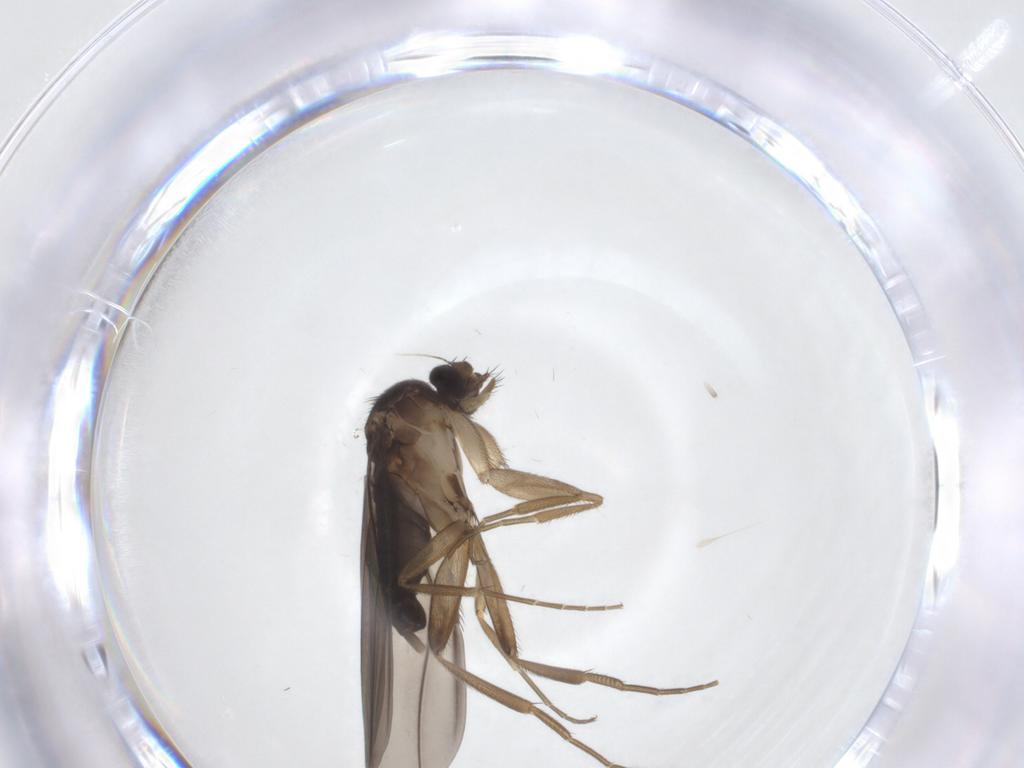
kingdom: Animalia
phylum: Arthropoda
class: Insecta
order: Diptera
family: Phoridae
